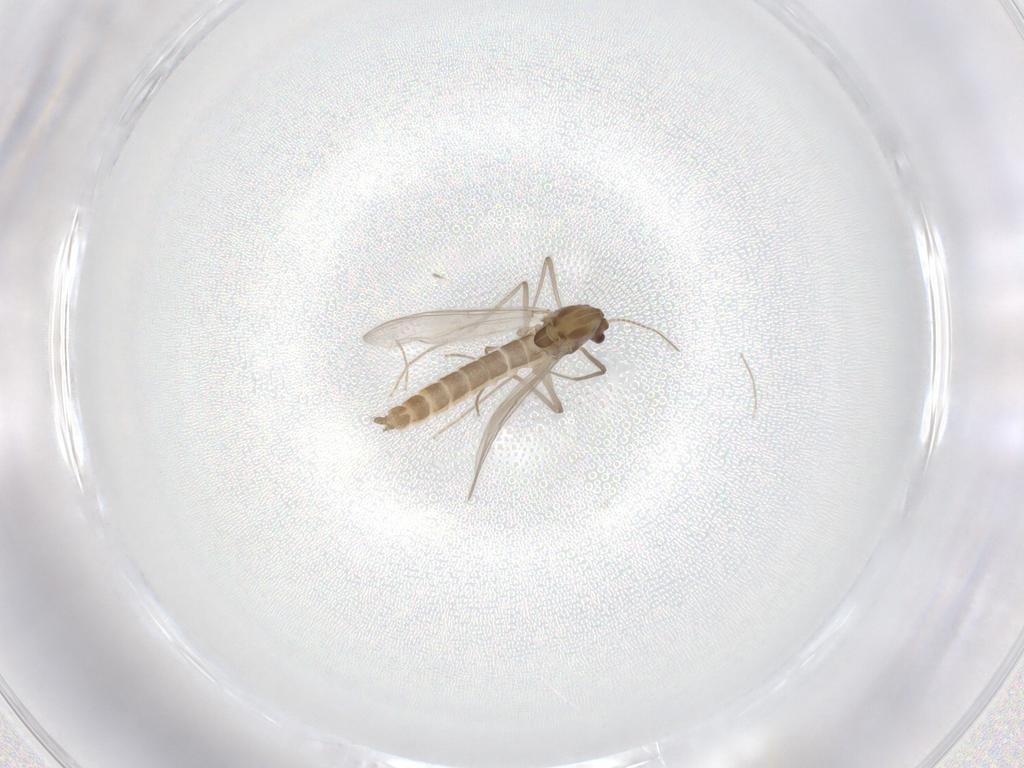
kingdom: Animalia
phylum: Arthropoda
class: Insecta
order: Diptera
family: Chironomidae
